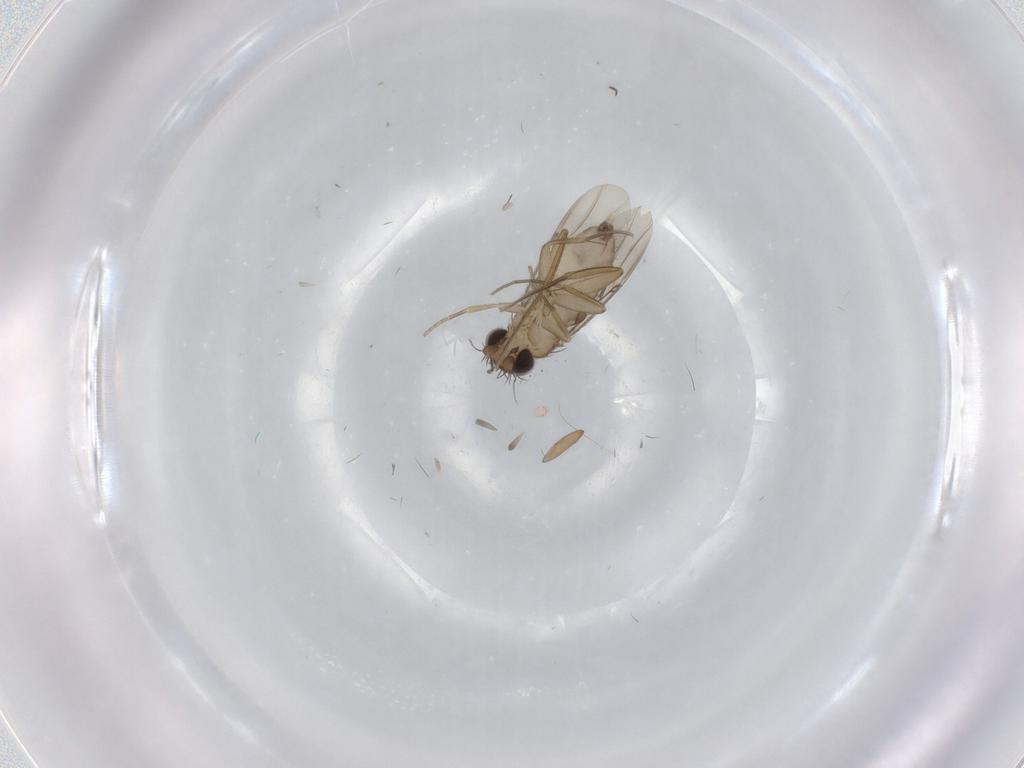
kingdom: Animalia
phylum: Arthropoda
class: Insecta
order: Diptera
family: Phoridae
